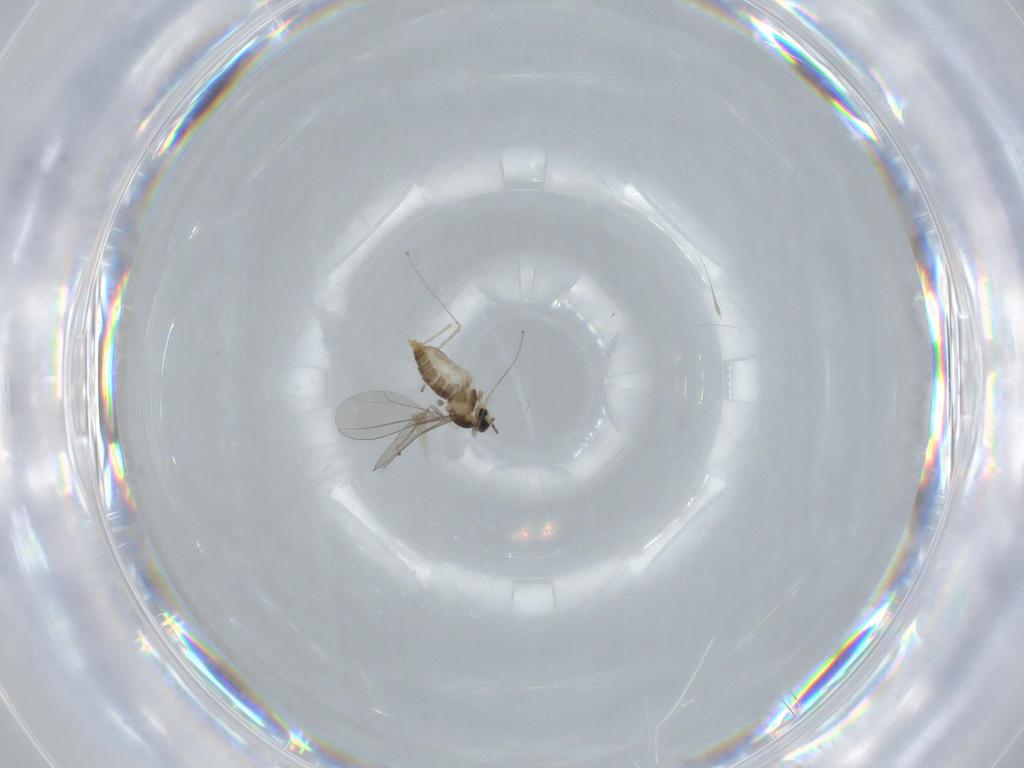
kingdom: Animalia
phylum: Arthropoda
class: Insecta
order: Diptera
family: Cecidomyiidae
